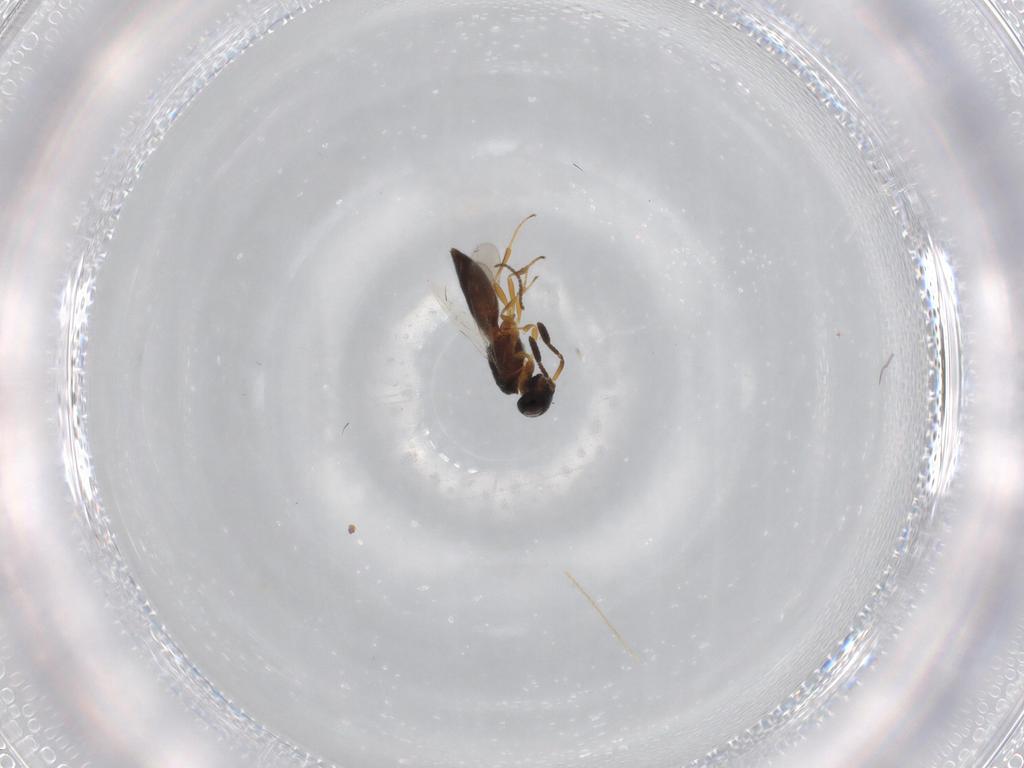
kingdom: Animalia
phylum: Arthropoda
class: Insecta
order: Hymenoptera
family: Scelionidae
